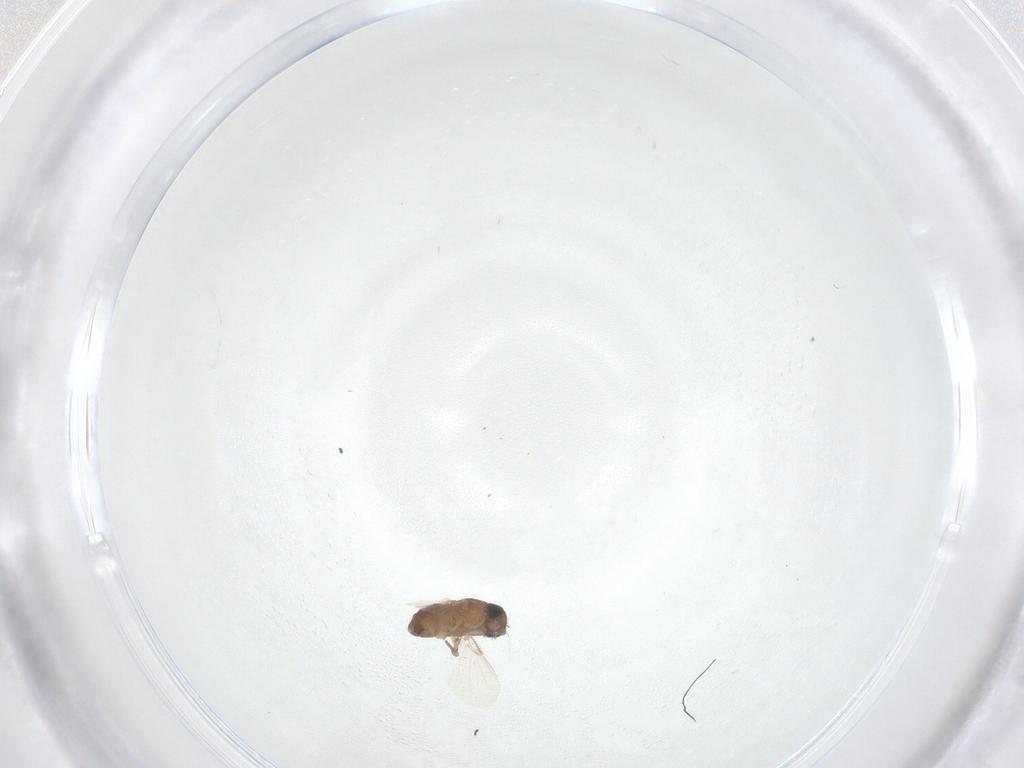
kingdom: Animalia
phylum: Arthropoda
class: Insecta
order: Diptera
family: Phoridae
